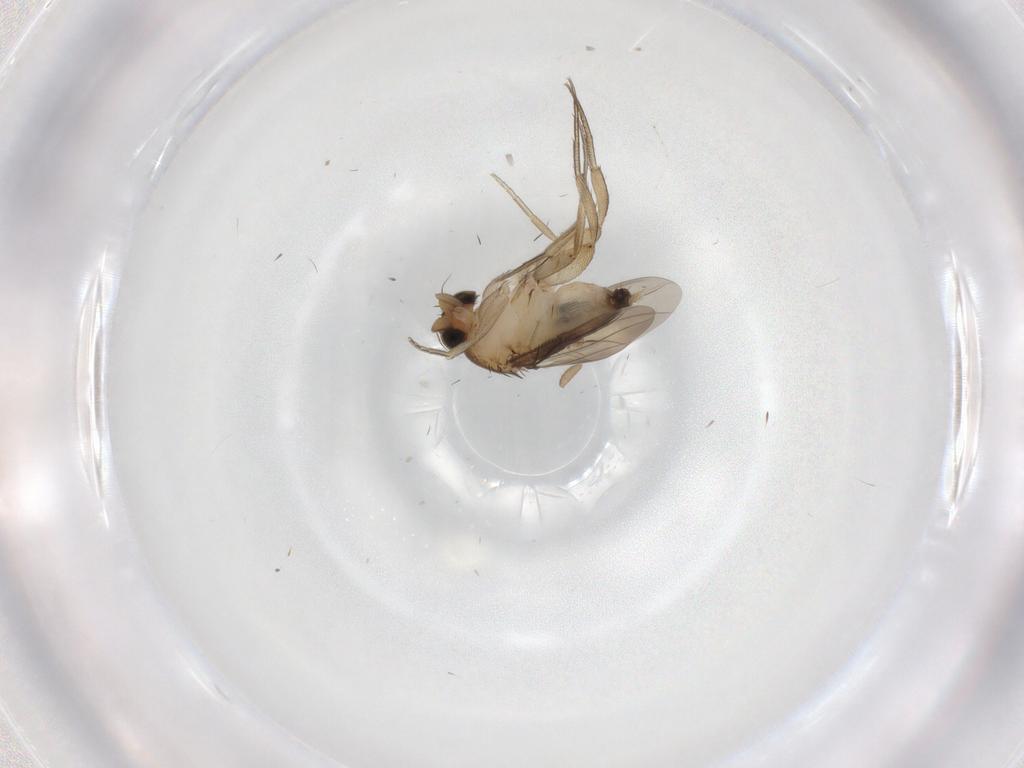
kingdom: Animalia
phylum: Arthropoda
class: Insecta
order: Diptera
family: Phoridae
